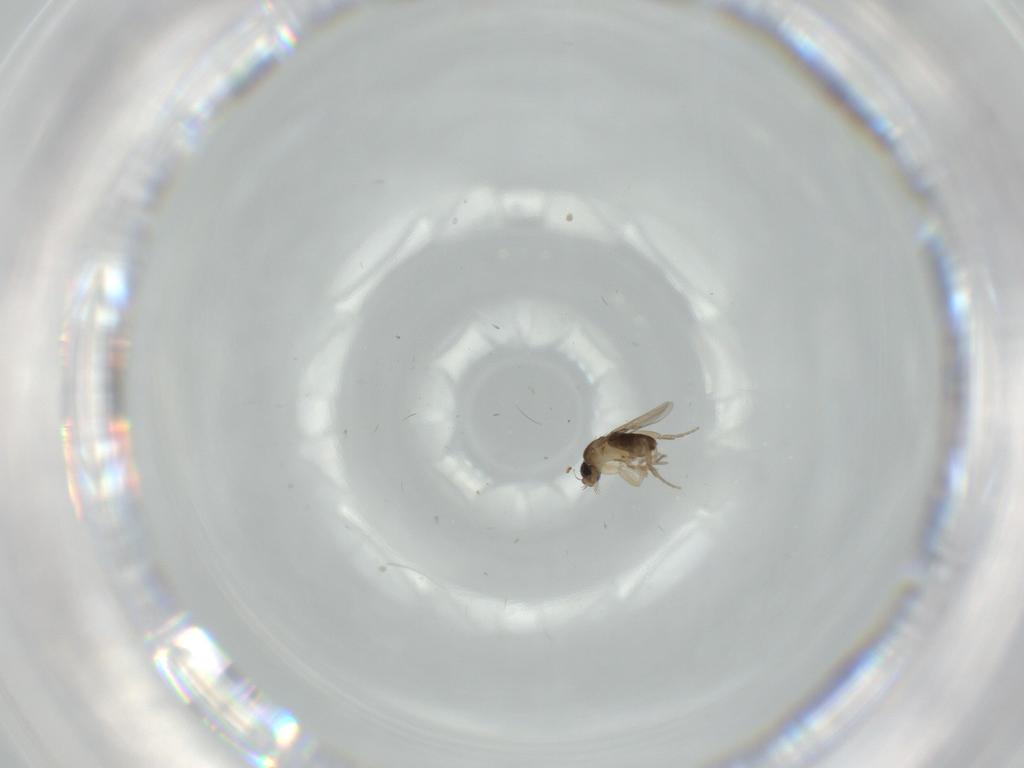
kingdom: Animalia
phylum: Arthropoda
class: Insecta
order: Diptera
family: Phoridae
